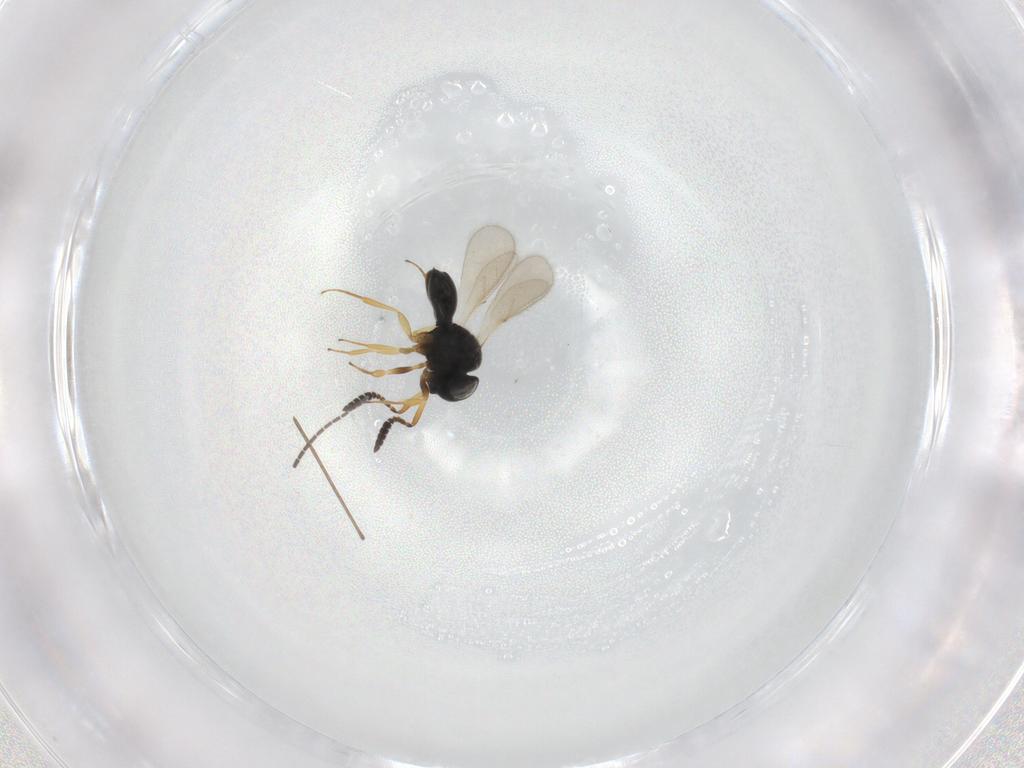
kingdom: Animalia
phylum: Arthropoda
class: Insecta
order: Hymenoptera
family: Scelionidae
